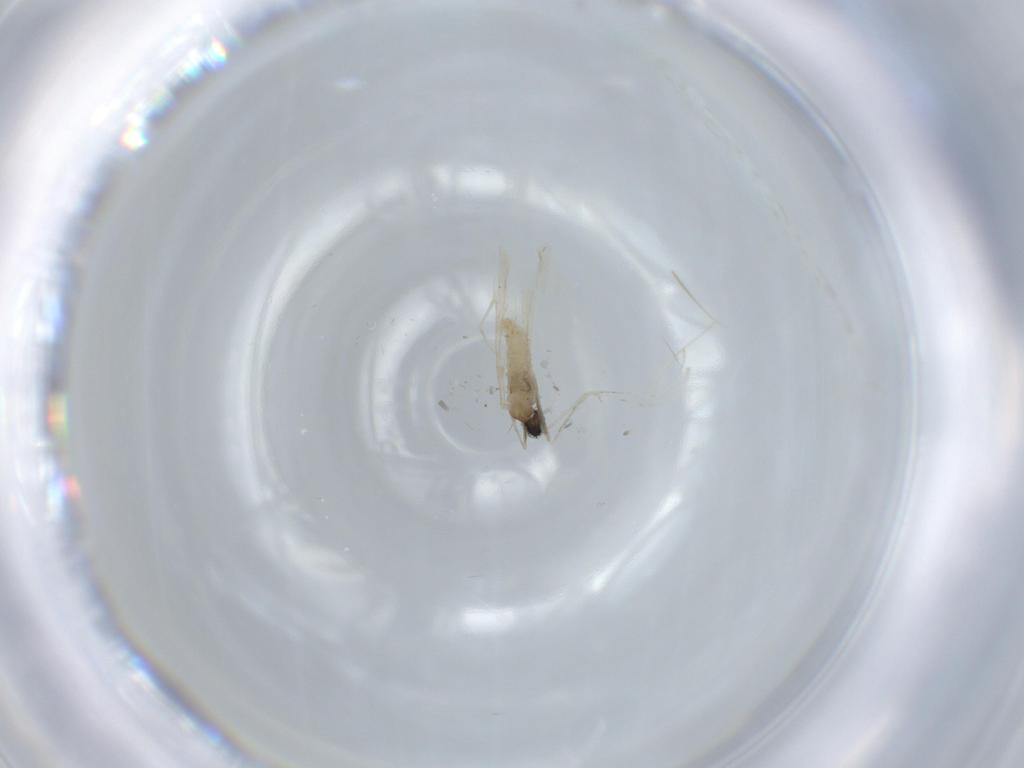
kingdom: Animalia
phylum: Arthropoda
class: Insecta
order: Diptera
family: Cecidomyiidae
